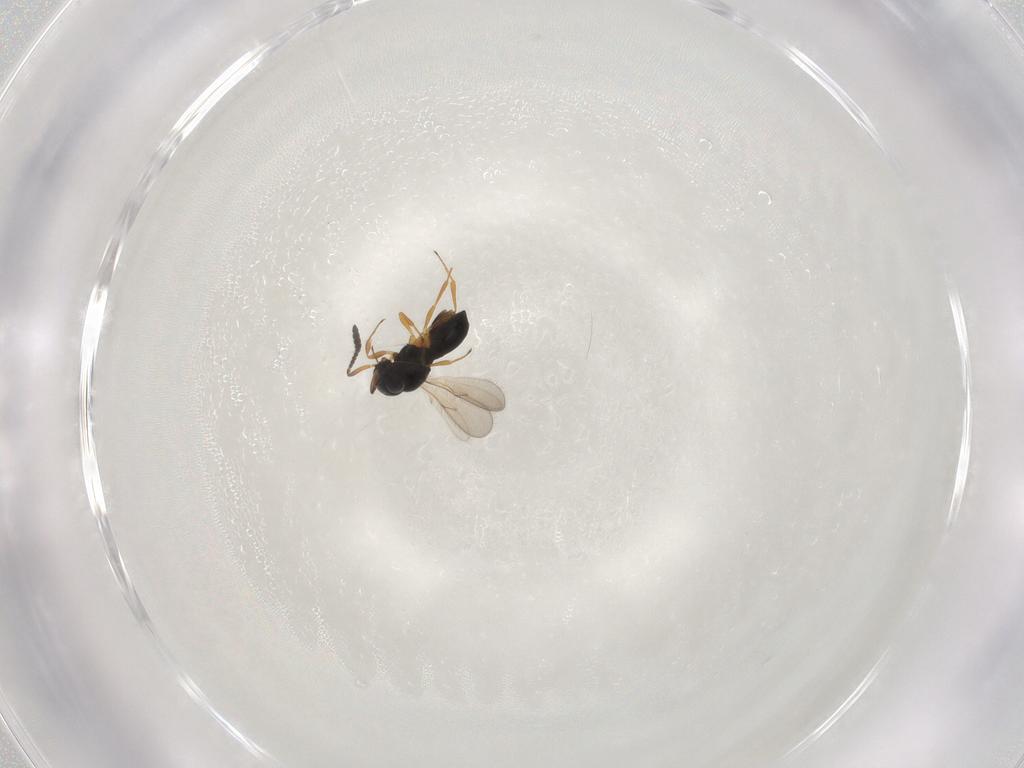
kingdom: Animalia
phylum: Arthropoda
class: Insecta
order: Hymenoptera
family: Scelionidae
